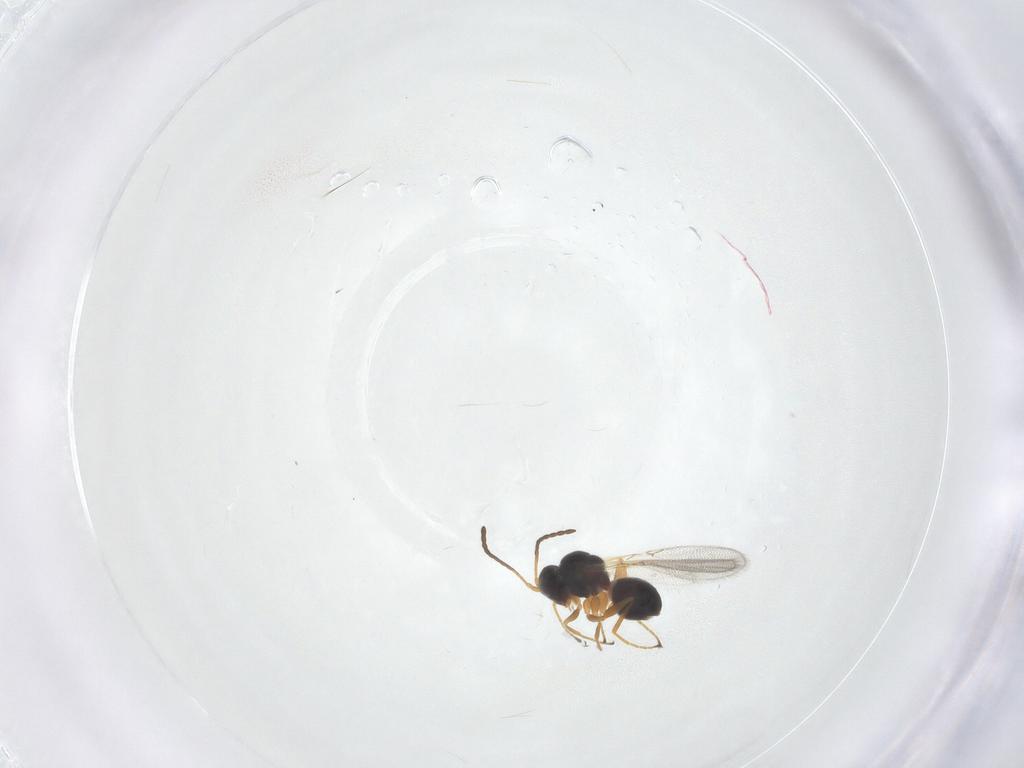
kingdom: Animalia
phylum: Arthropoda
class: Insecta
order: Hymenoptera
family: Figitidae
